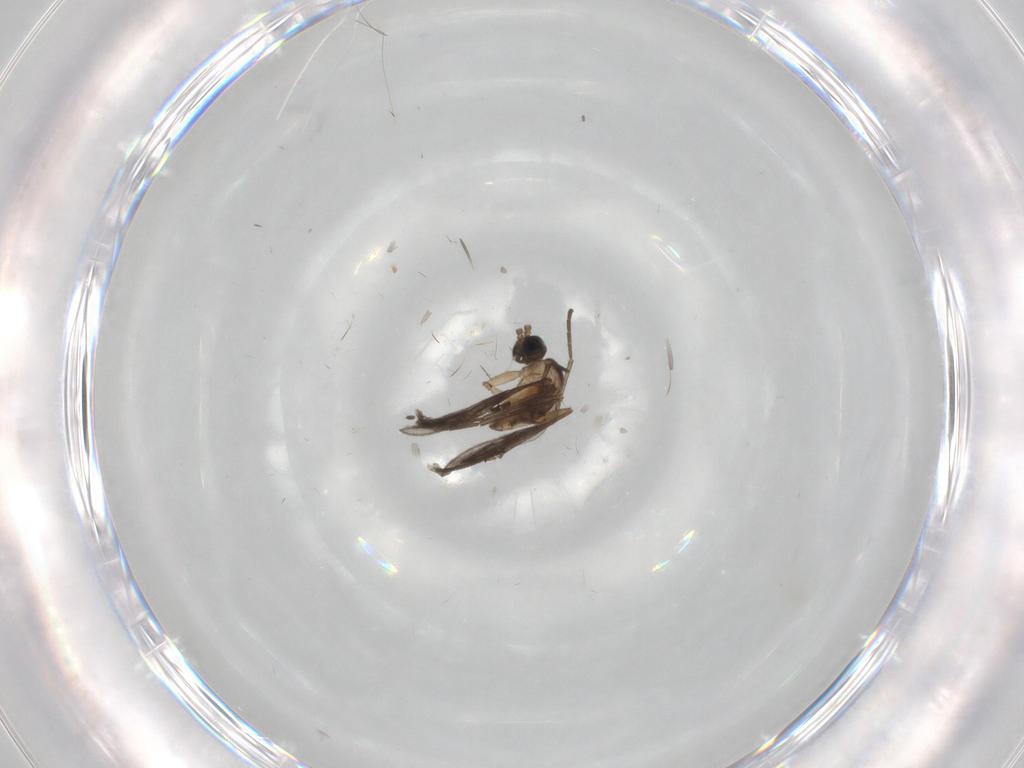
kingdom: Animalia
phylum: Arthropoda
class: Insecta
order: Diptera
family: Sciaridae
